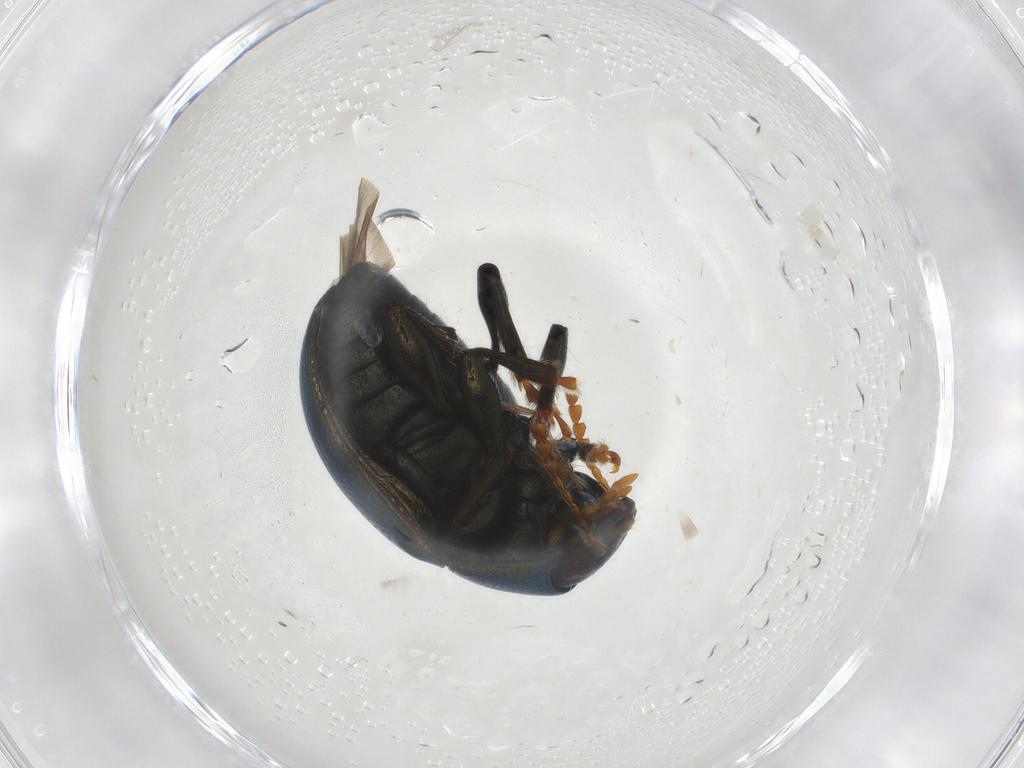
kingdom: Animalia
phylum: Arthropoda
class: Insecta
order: Coleoptera
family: Chrysomelidae
